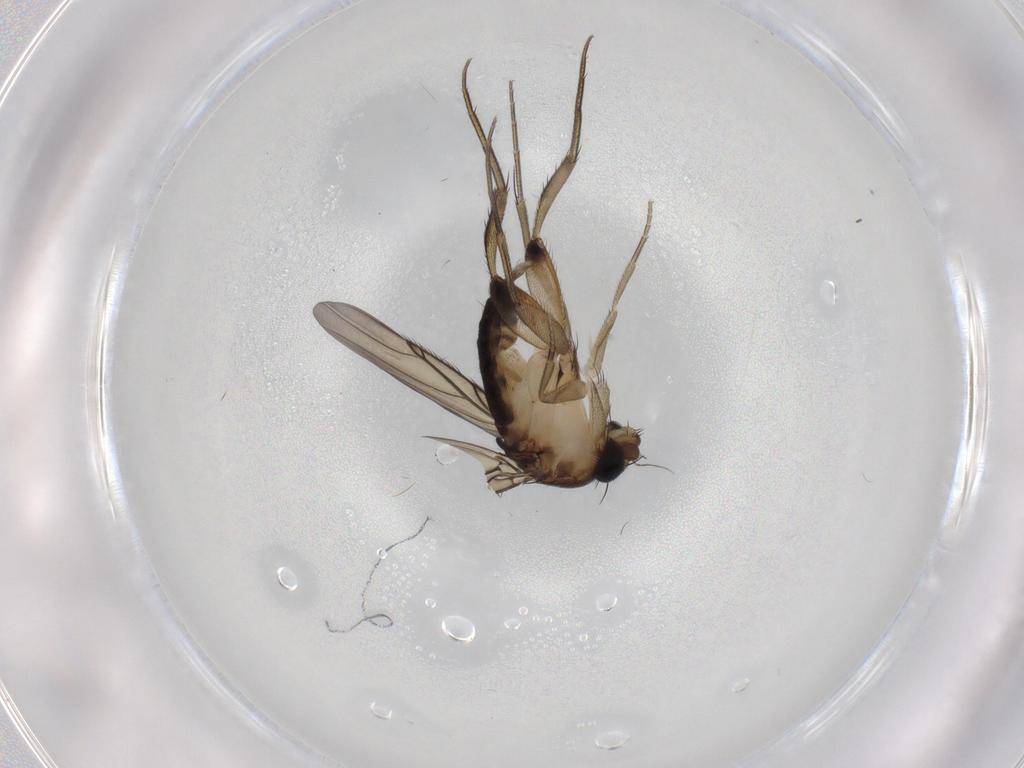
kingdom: Animalia
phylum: Arthropoda
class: Insecta
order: Diptera
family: Phoridae
